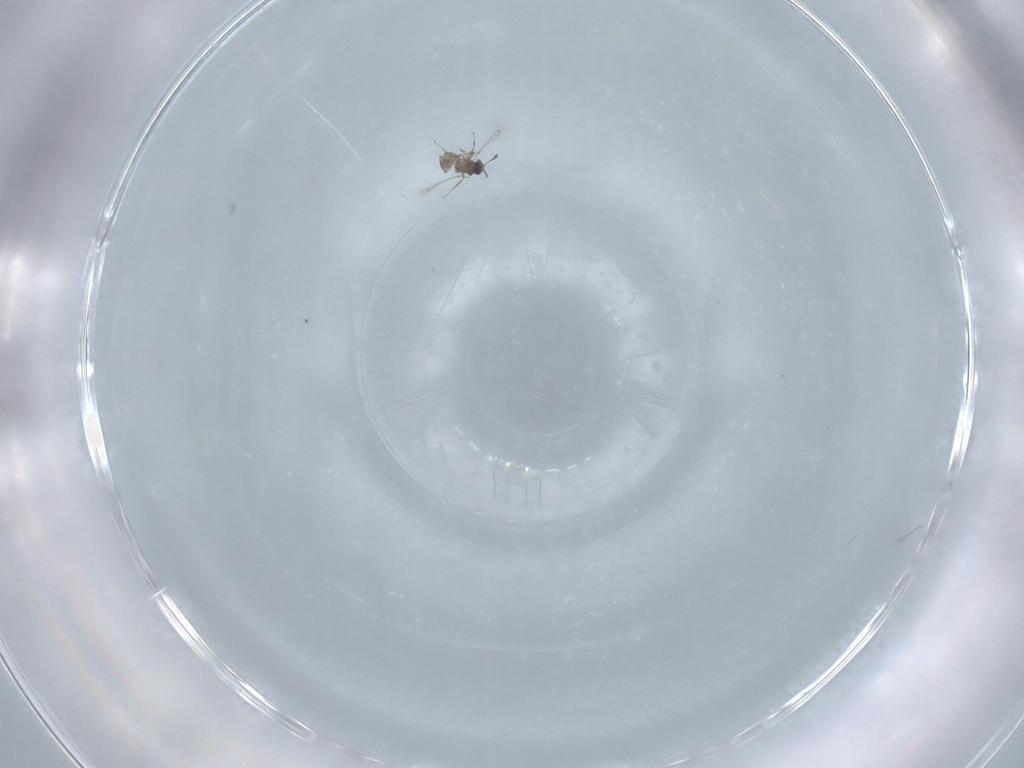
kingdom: Animalia
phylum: Arthropoda
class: Insecta
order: Hymenoptera
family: Mymaridae
